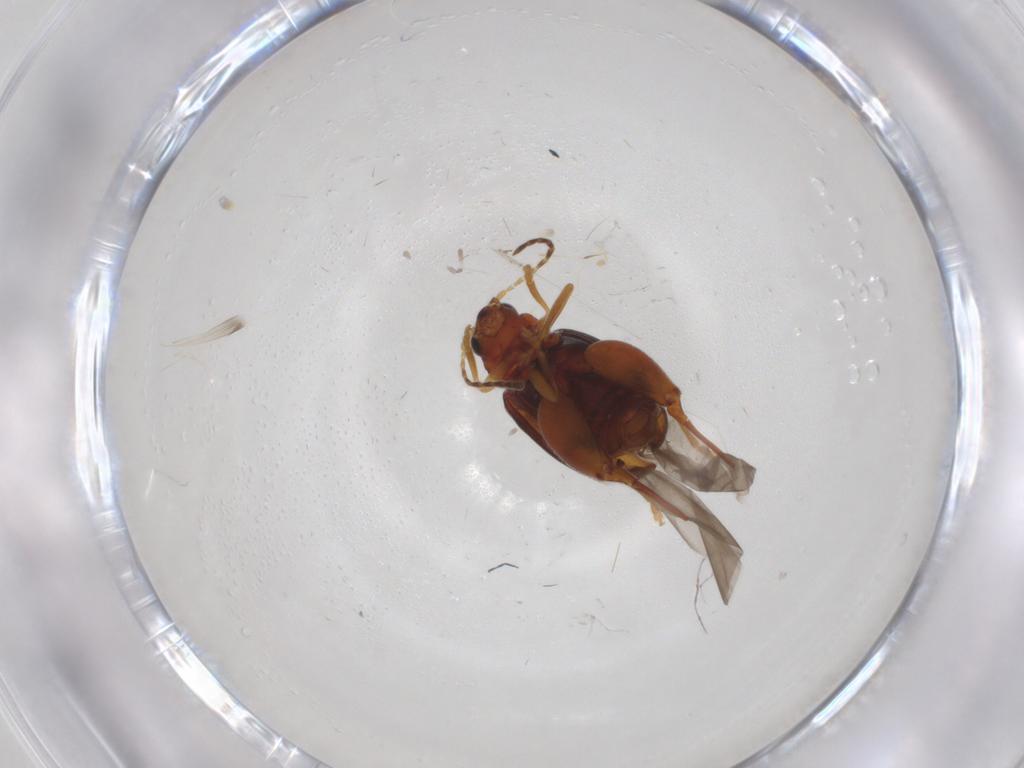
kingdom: Animalia
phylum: Arthropoda
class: Insecta
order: Coleoptera
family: Chrysomelidae
